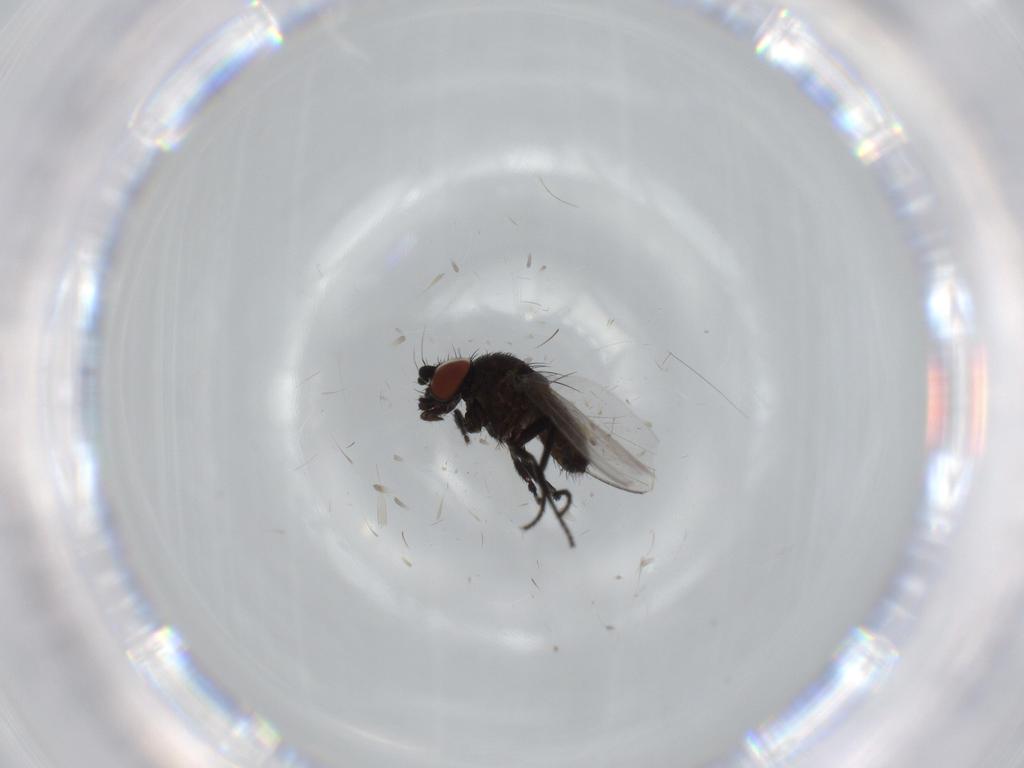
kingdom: Animalia
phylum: Arthropoda
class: Insecta
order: Diptera
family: Milichiidae
